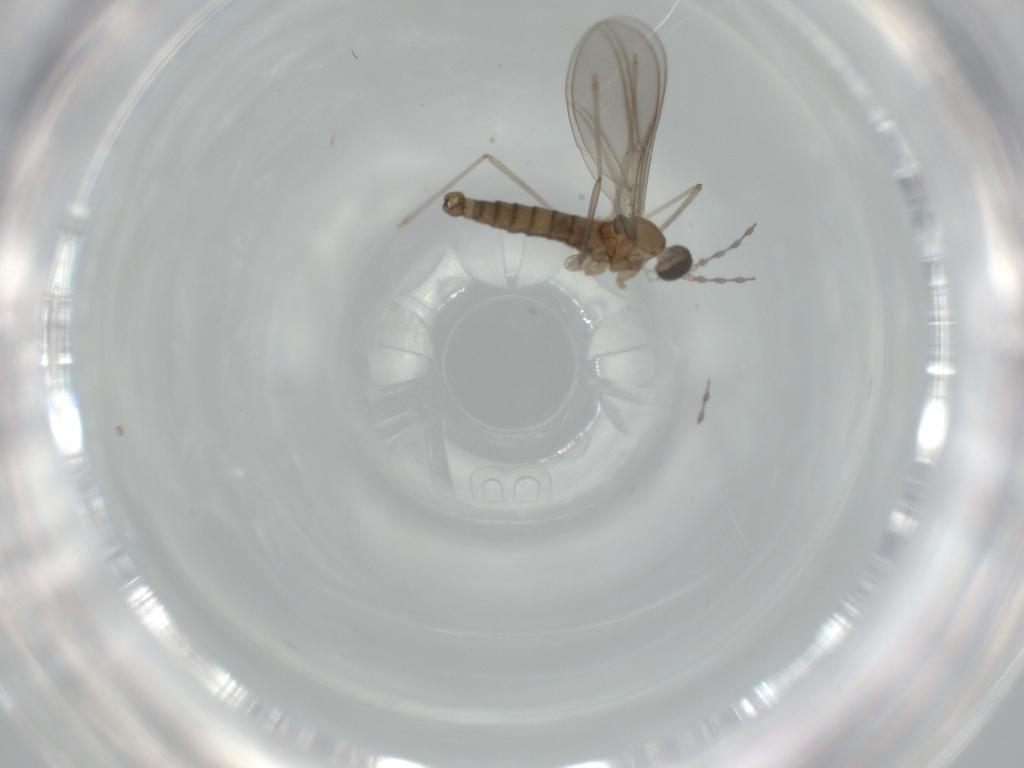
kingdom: Animalia
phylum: Arthropoda
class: Insecta
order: Diptera
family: Cecidomyiidae
